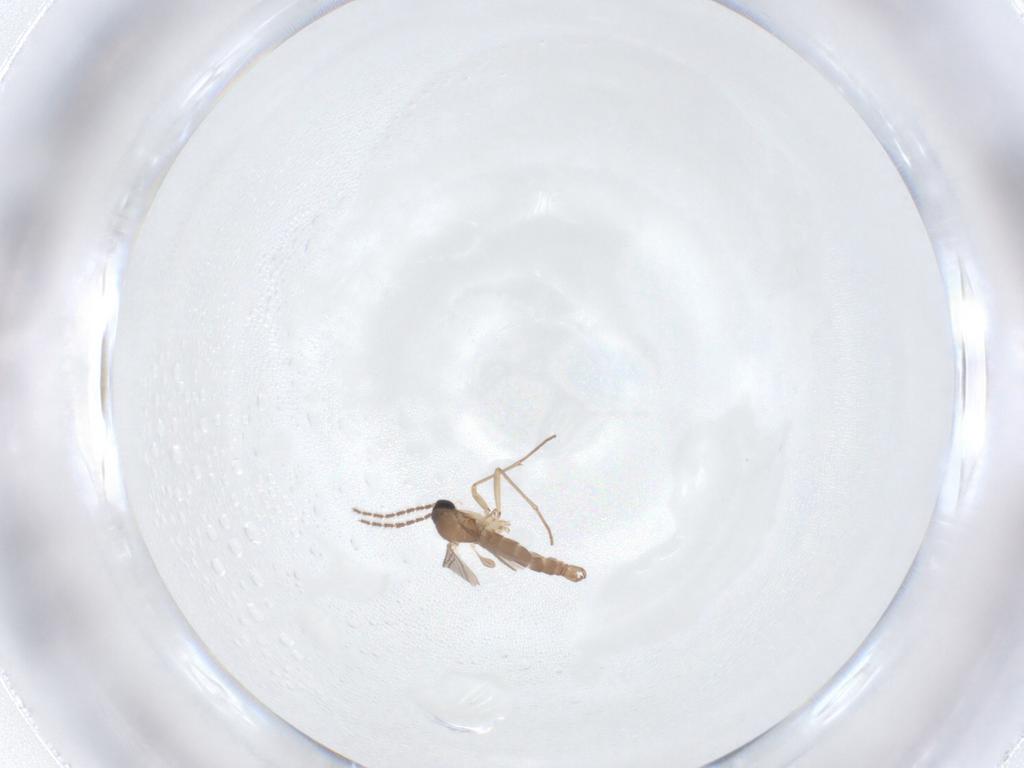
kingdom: Animalia
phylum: Arthropoda
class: Insecta
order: Diptera
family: Sciaridae
